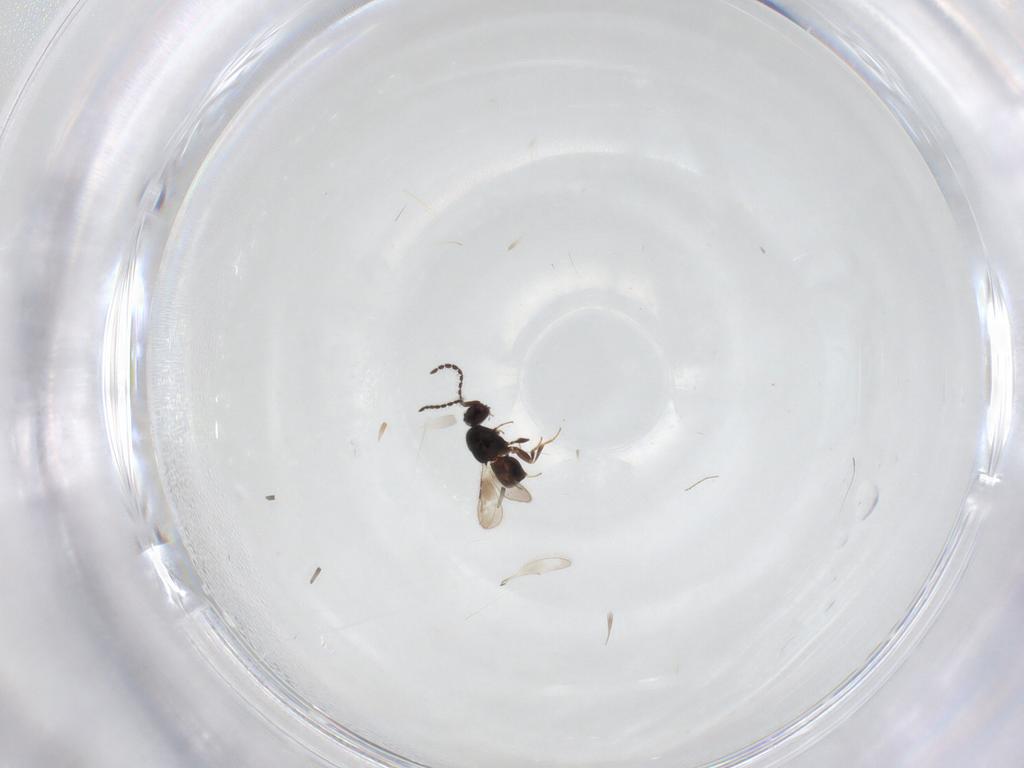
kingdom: Animalia
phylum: Arthropoda
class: Insecta
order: Diptera
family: Chironomidae
